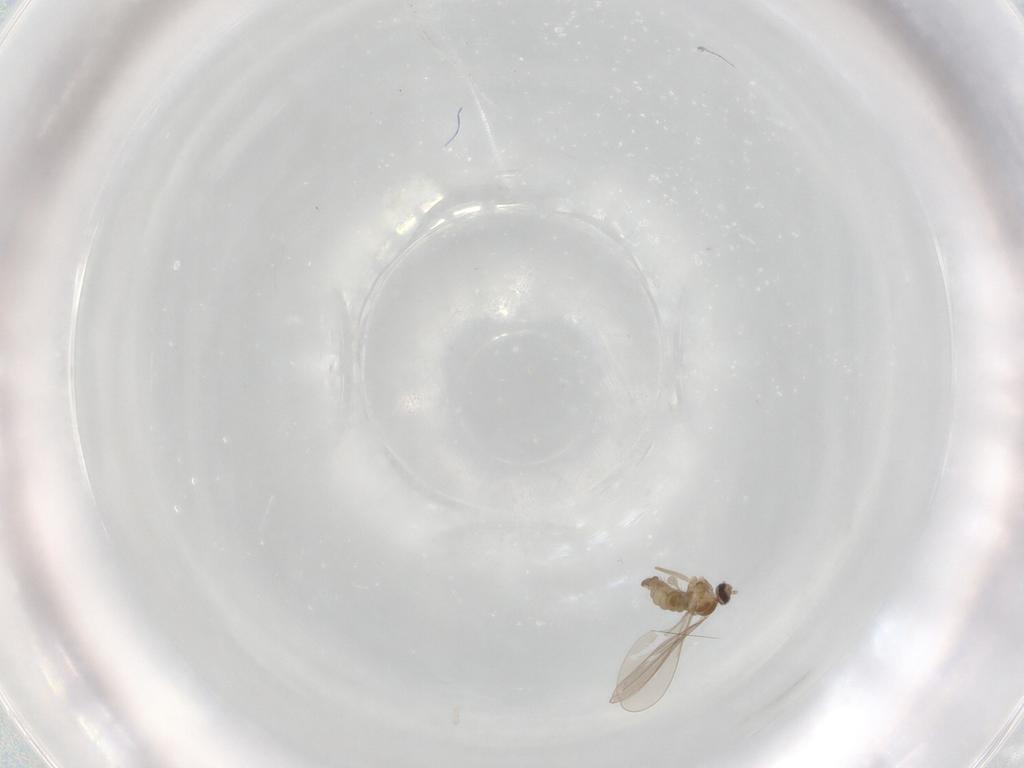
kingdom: Animalia
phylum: Arthropoda
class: Insecta
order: Diptera
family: Cecidomyiidae
